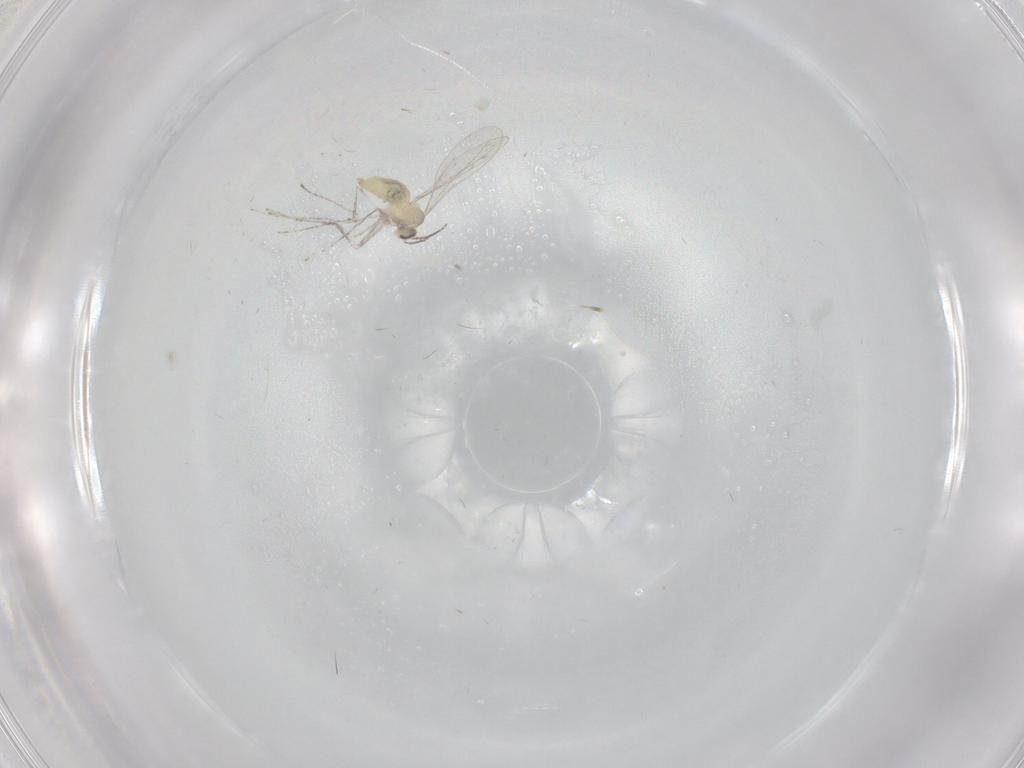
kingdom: Animalia
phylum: Arthropoda
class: Insecta
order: Diptera
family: Cecidomyiidae
